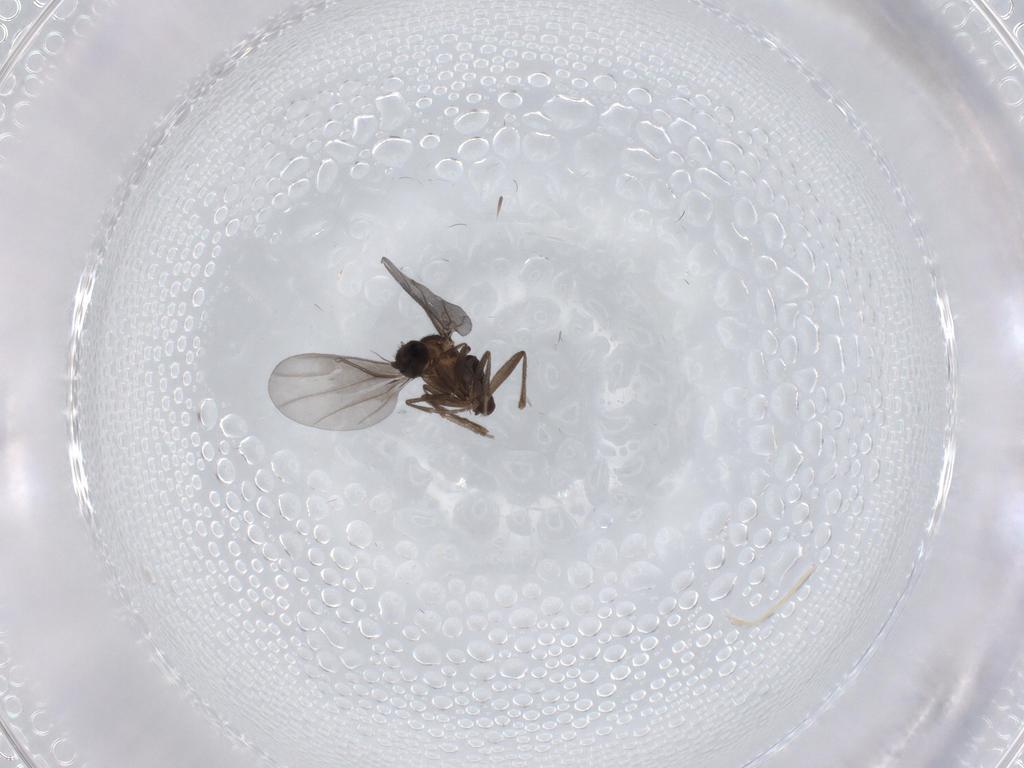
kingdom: Animalia
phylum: Arthropoda
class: Insecta
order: Diptera
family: Phoridae
